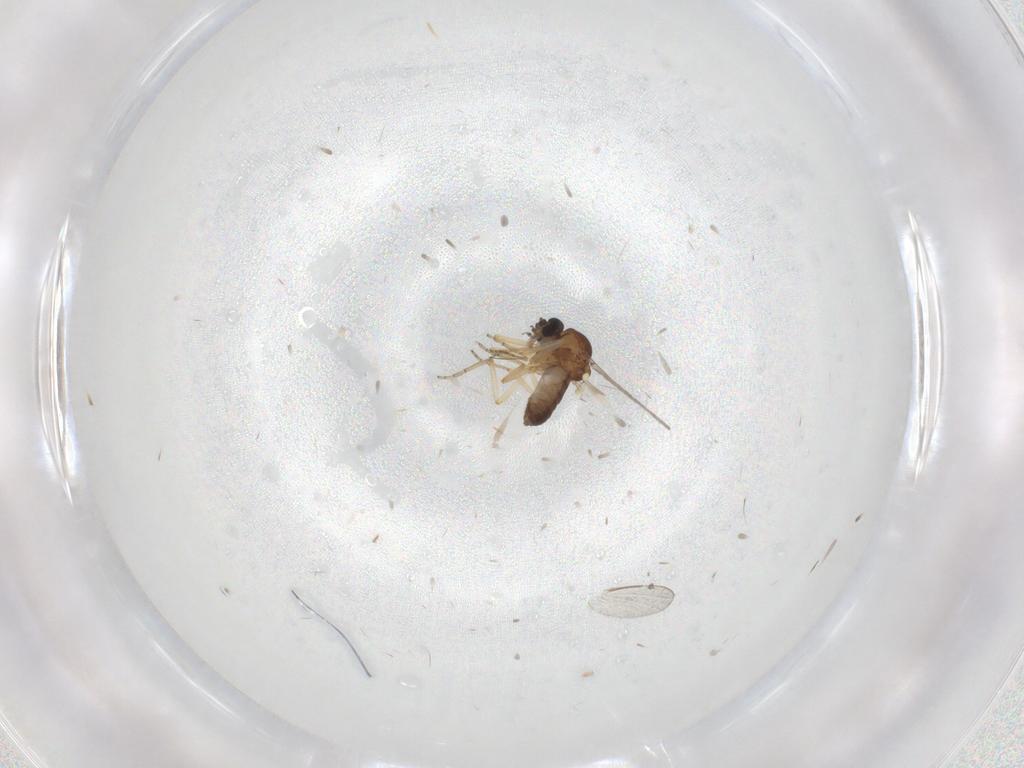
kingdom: Animalia
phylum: Arthropoda
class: Insecta
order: Diptera
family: Ceratopogonidae
